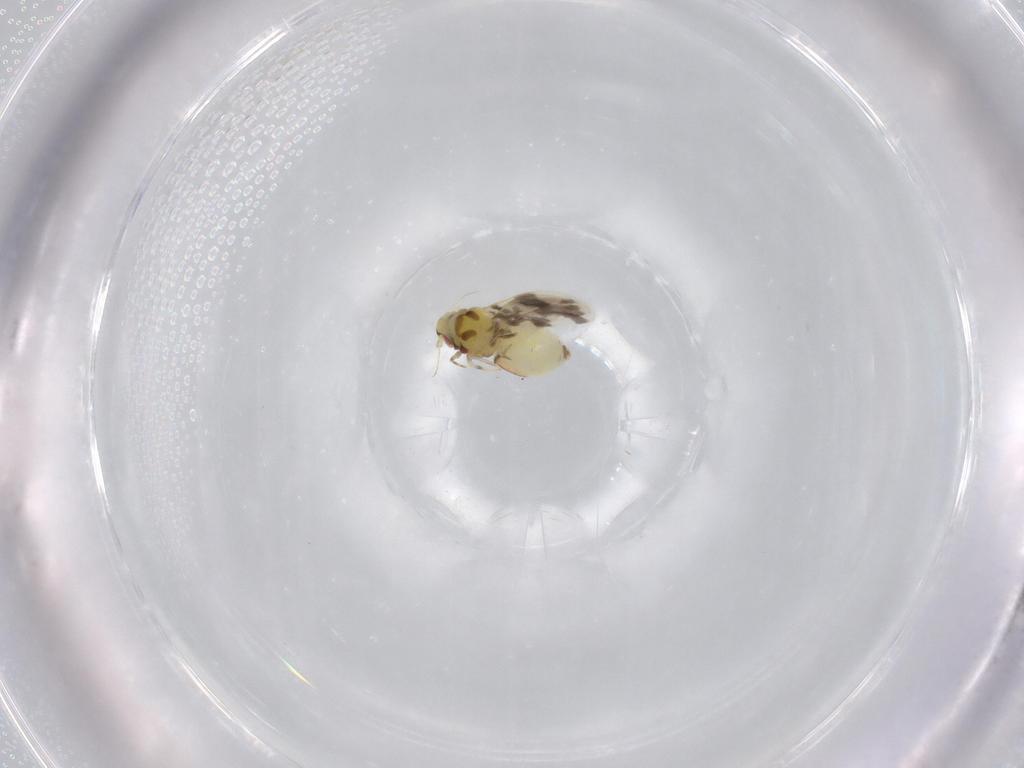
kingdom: Animalia
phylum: Arthropoda
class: Insecta
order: Hemiptera
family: Aleyrodidae
